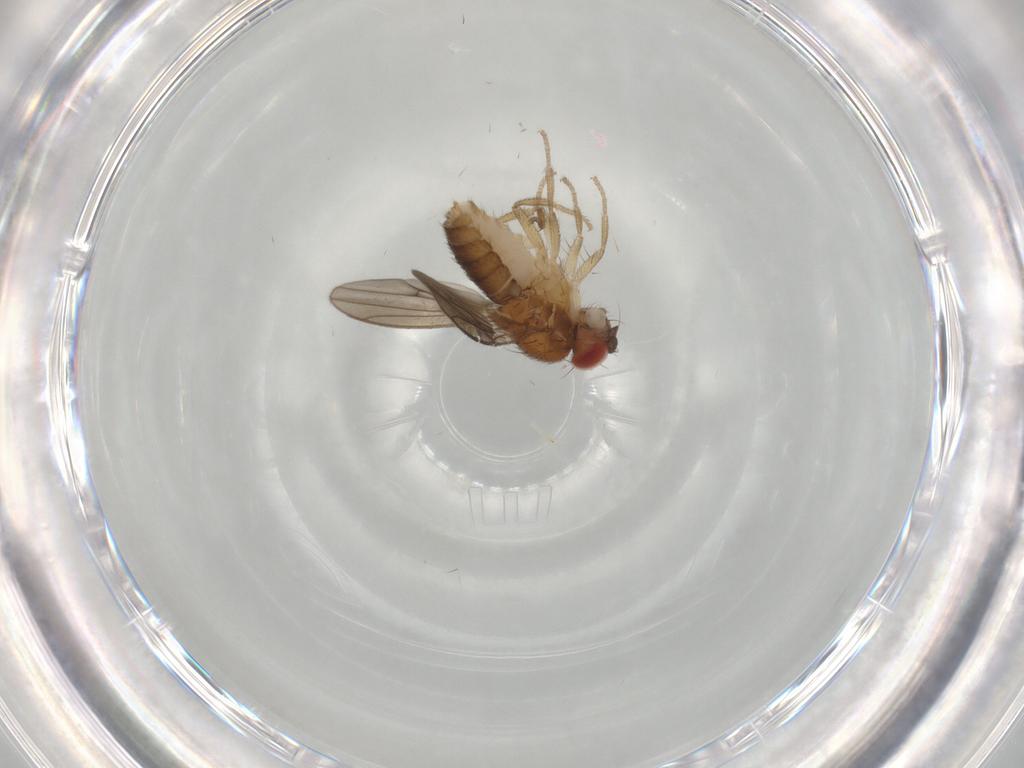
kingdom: Animalia
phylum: Arthropoda
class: Insecta
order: Diptera
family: Drosophilidae
